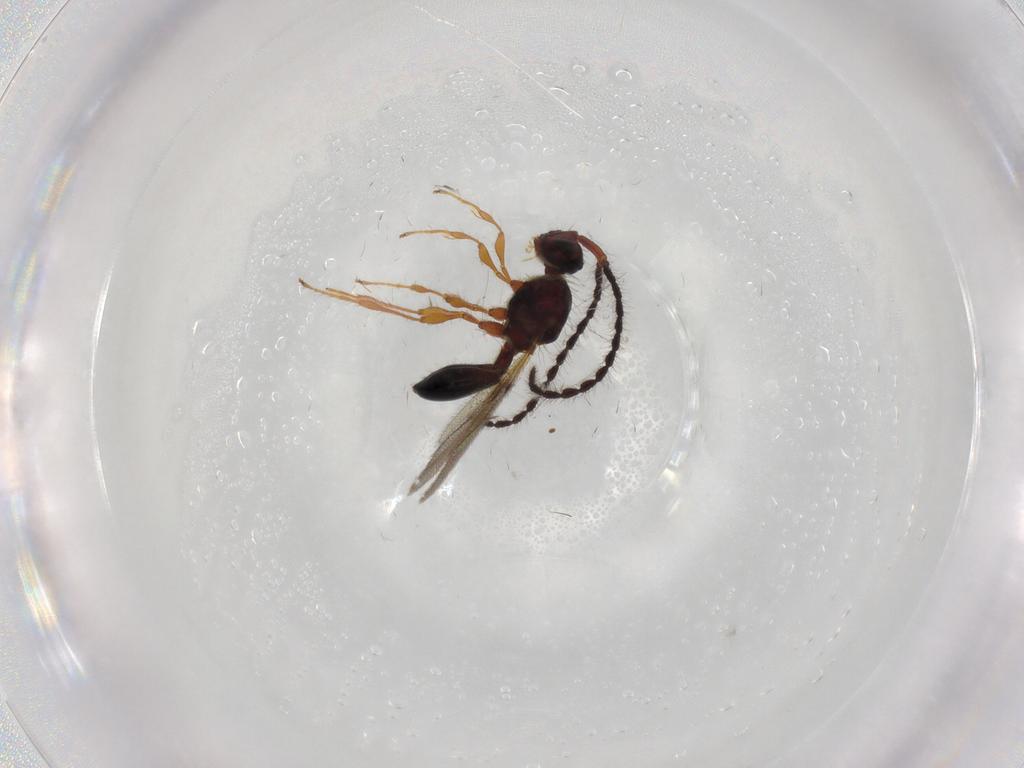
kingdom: Animalia
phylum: Arthropoda
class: Insecta
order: Hymenoptera
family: Diapriidae
